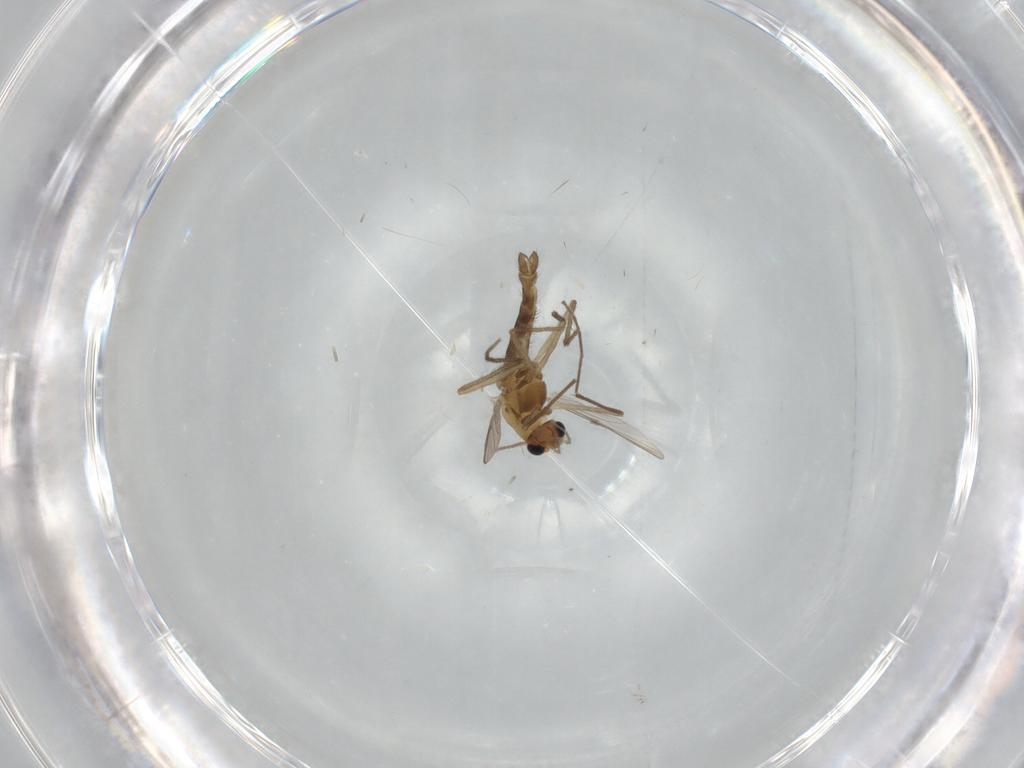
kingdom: Animalia
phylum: Arthropoda
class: Insecta
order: Diptera
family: Chironomidae
